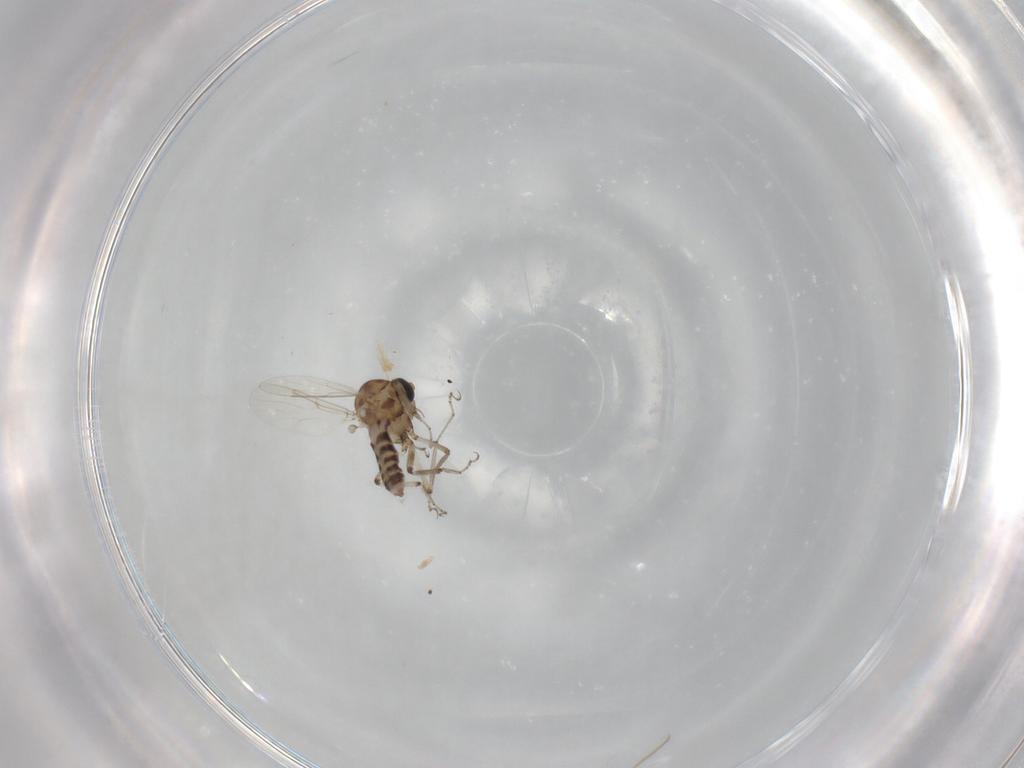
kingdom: Animalia
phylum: Arthropoda
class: Insecta
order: Diptera
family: Ceratopogonidae
